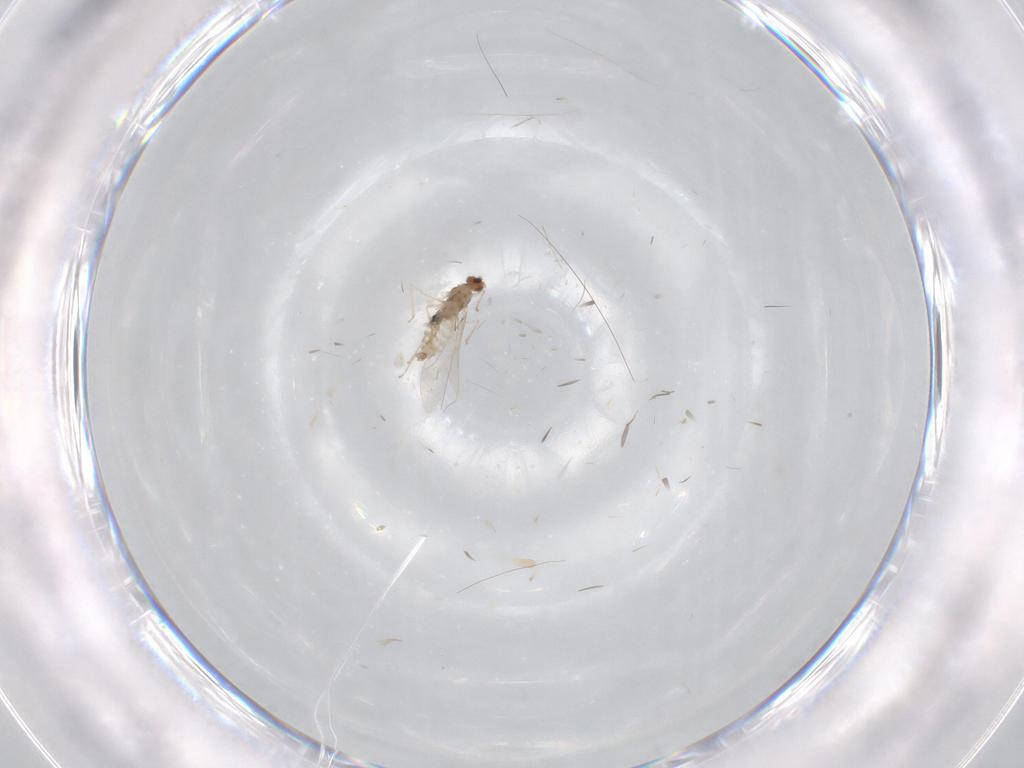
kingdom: Animalia
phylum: Arthropoda
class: Insecta
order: Diptera
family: Cecidomyiidae
